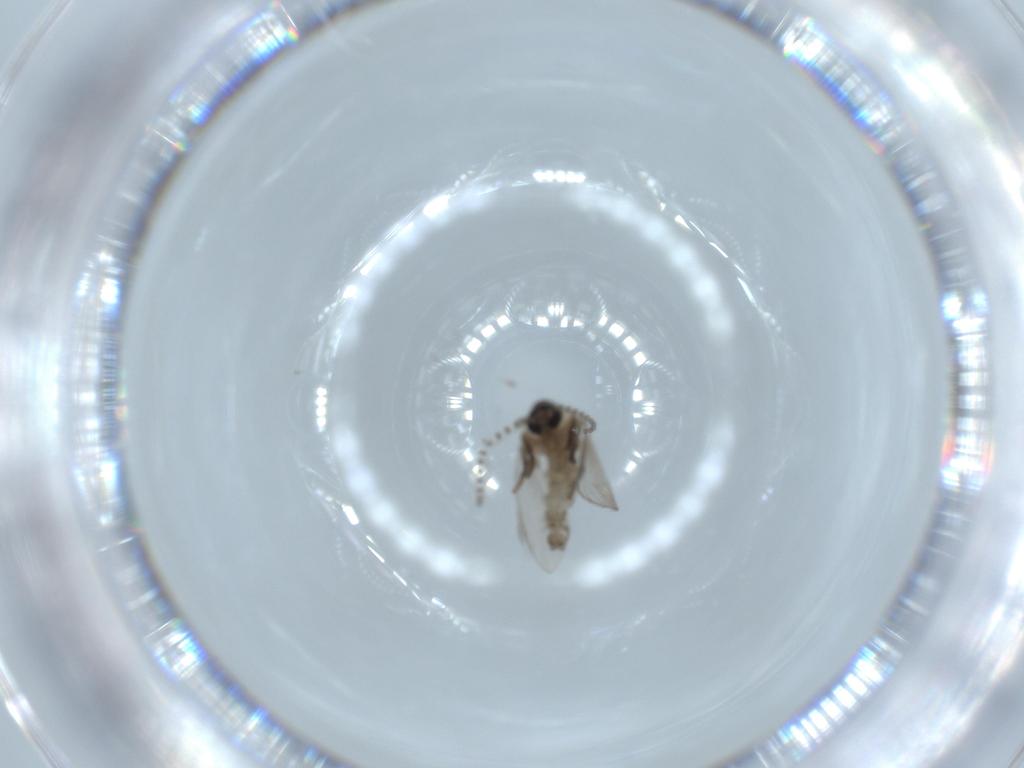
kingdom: Animalia
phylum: Arthropoda
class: Insecta
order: Diptera
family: Psychodidae
